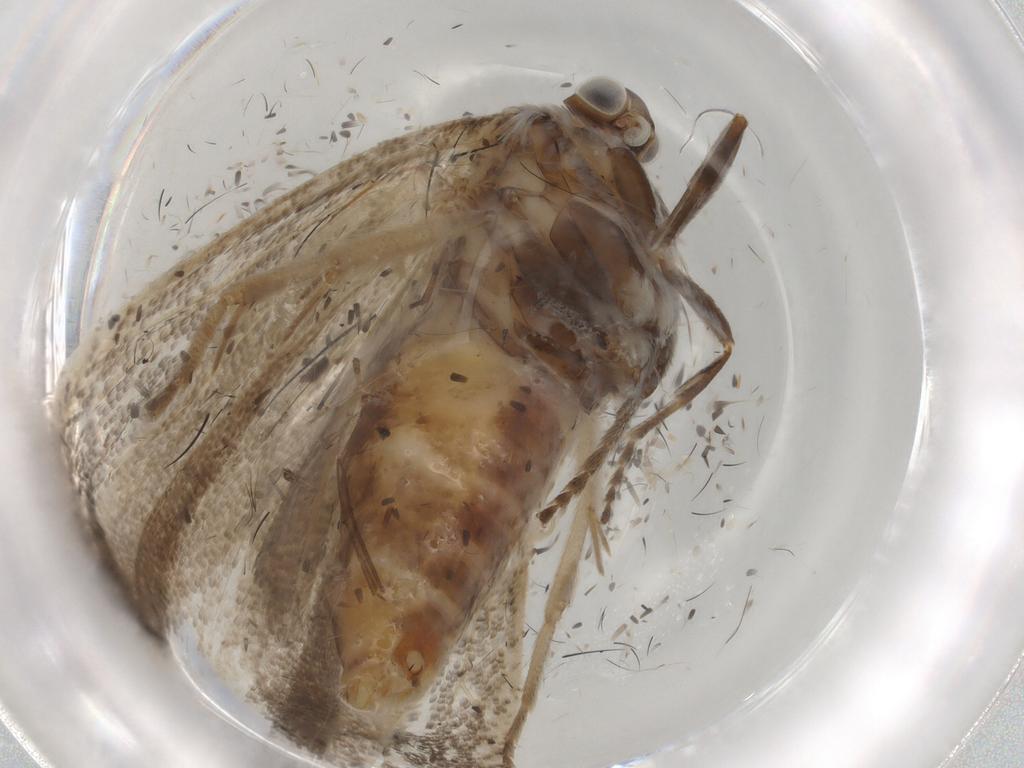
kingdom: Animalia
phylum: Arthropoda
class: Insecta
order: Lepidoptera
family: Tortricidae
